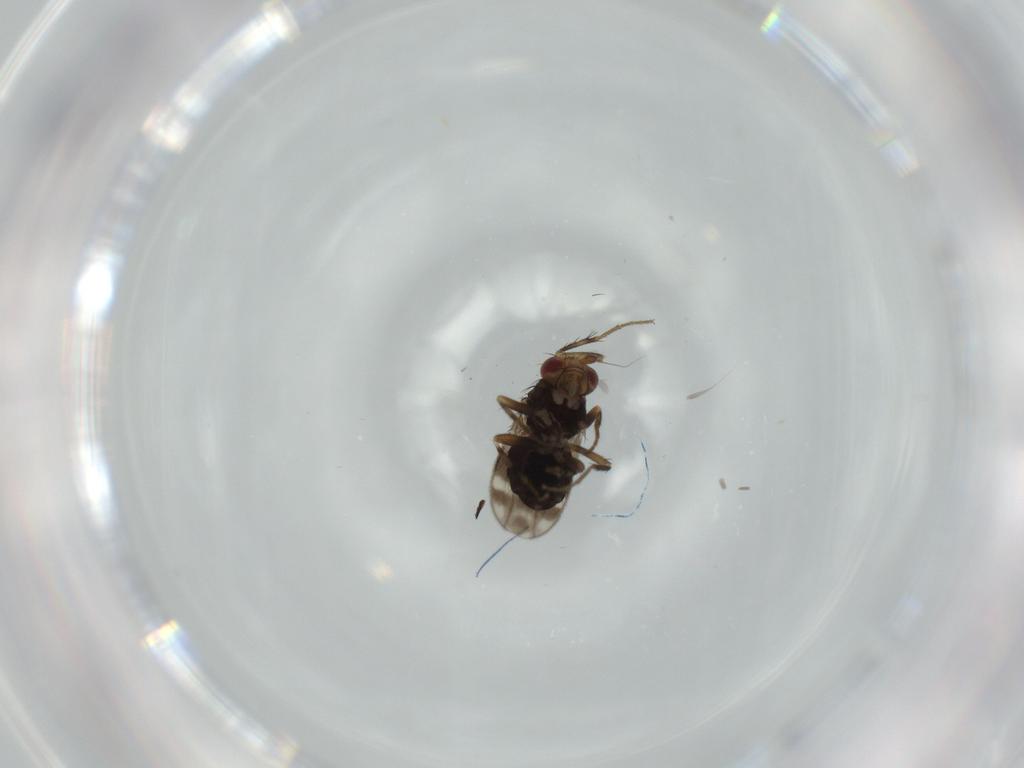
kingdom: Animalia
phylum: Arthropoda
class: Insecta
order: Diptera
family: Sphaeroceridae
